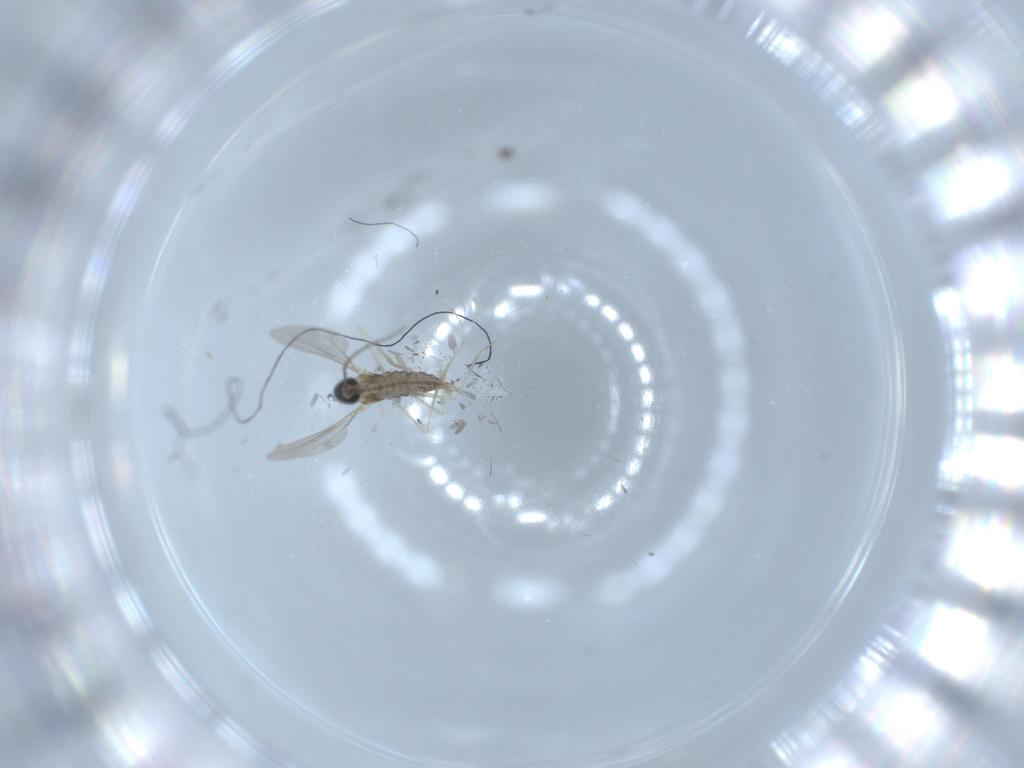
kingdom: Animalia
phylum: Arthropoda
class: Insecta
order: Diptera
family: Cecidomyiidae
